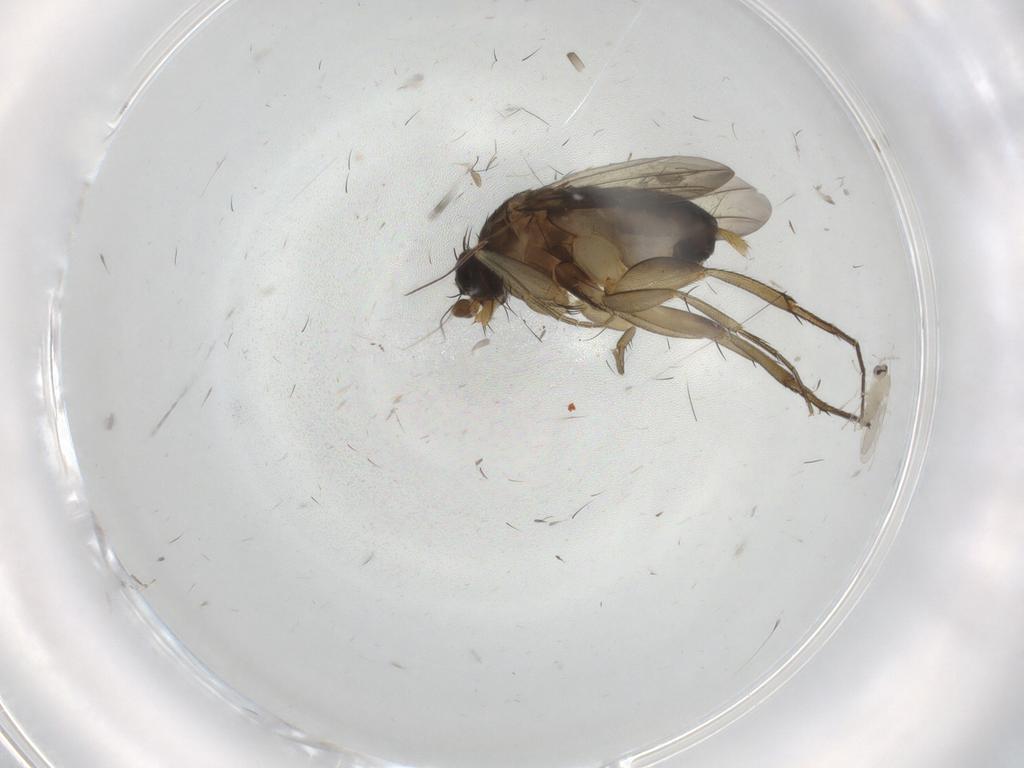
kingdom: Animalia
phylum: Arthropoda
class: Insecta
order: Diptera
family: Phoridae
